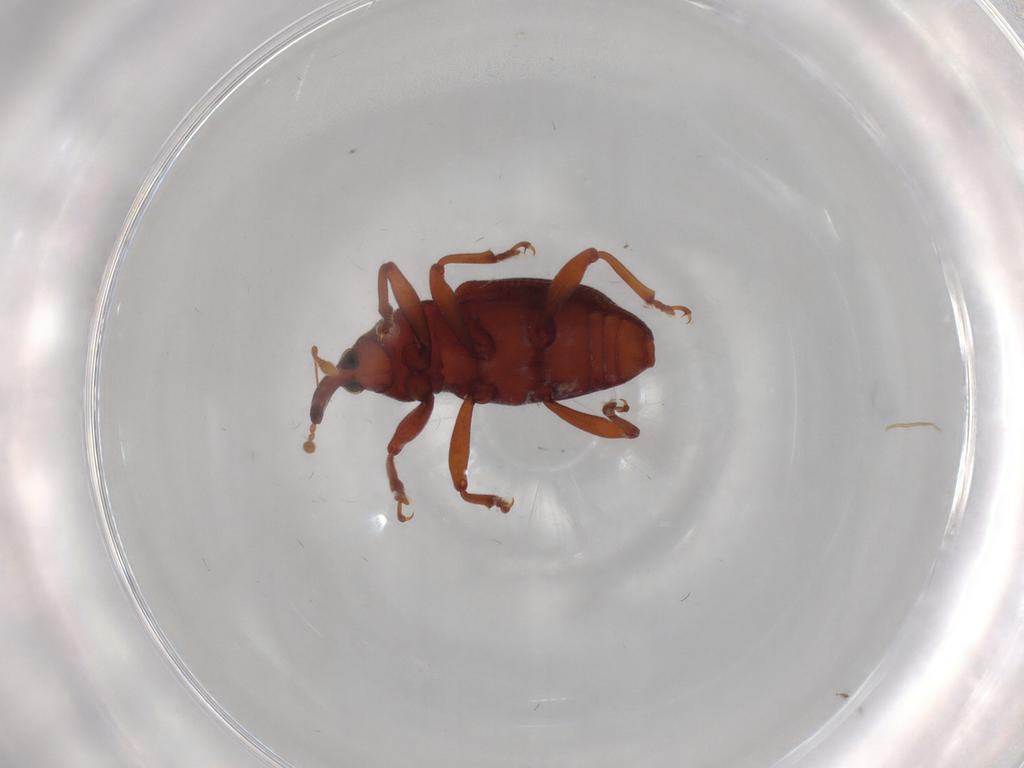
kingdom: Animalia
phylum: Arthropoda
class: Insecta
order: Coleoptera
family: Curculionidae
